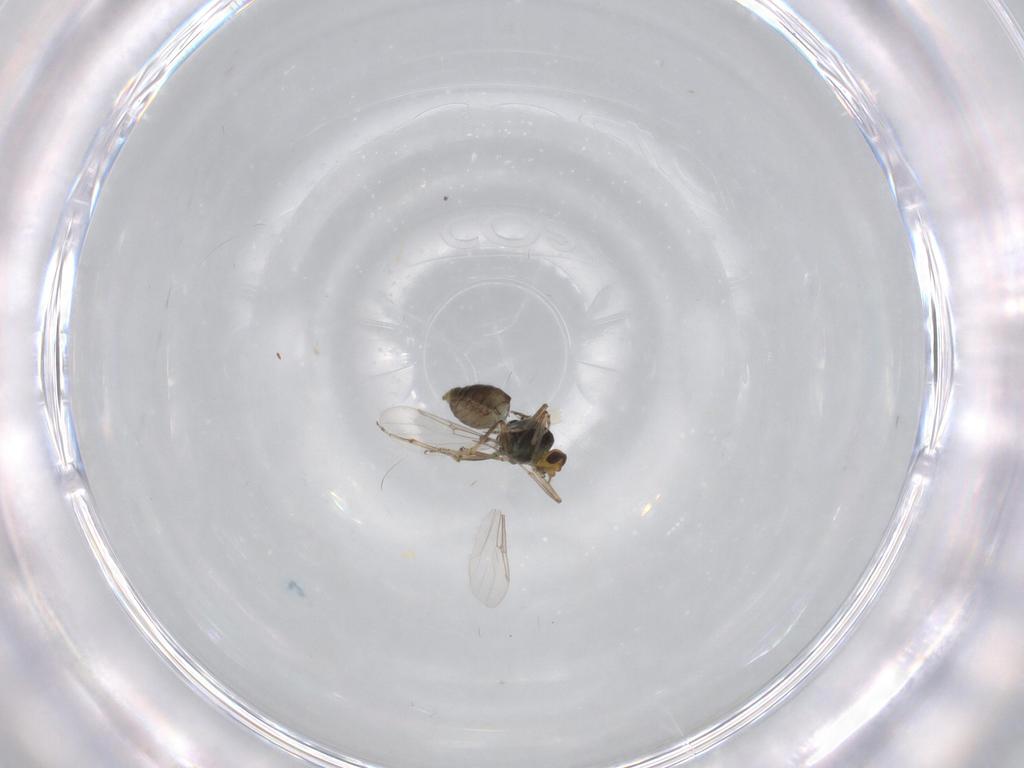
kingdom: Animalia
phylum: Arthropoda
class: Insecta
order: Diptera
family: Ceratopogonidae
